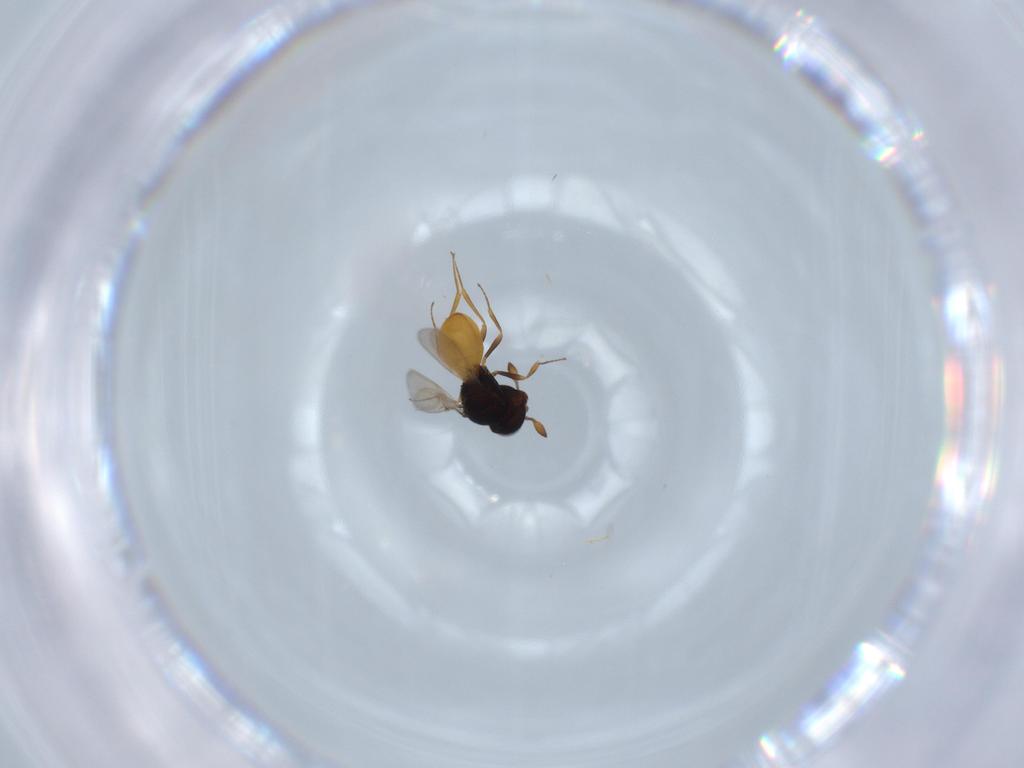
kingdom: Animalia
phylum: Arthropoda
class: Insecta
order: Hymenoptera
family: Scelionidae
